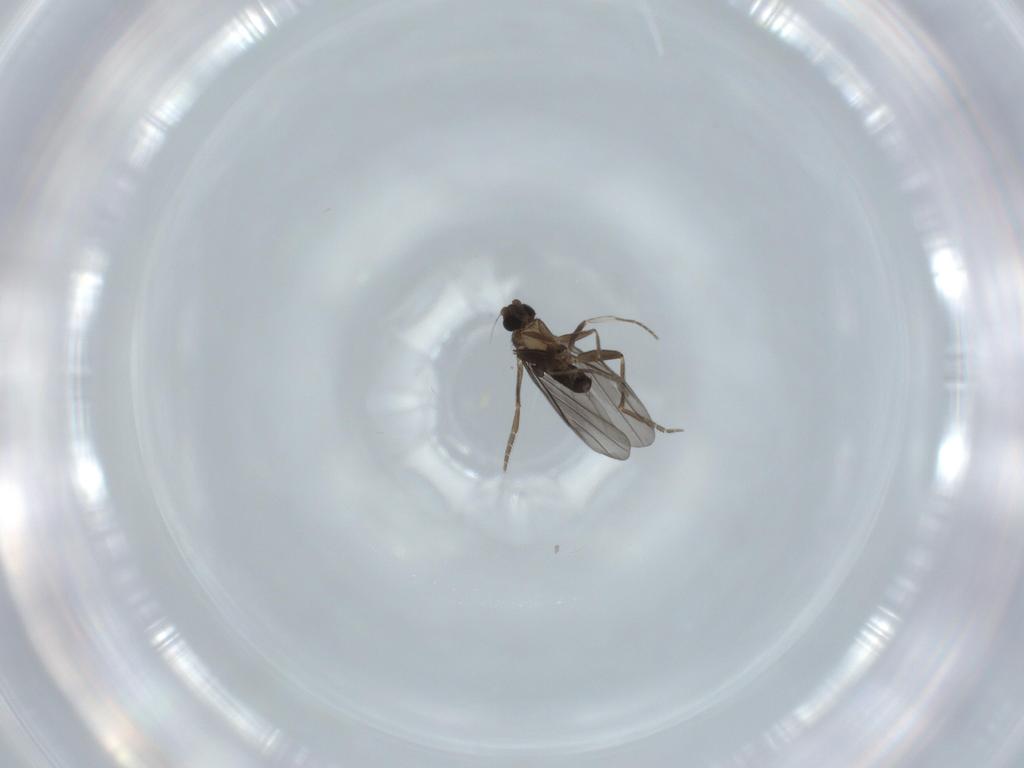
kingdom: Animalia
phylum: Arthropoda
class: Insecta
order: Diptera
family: Phoridae
